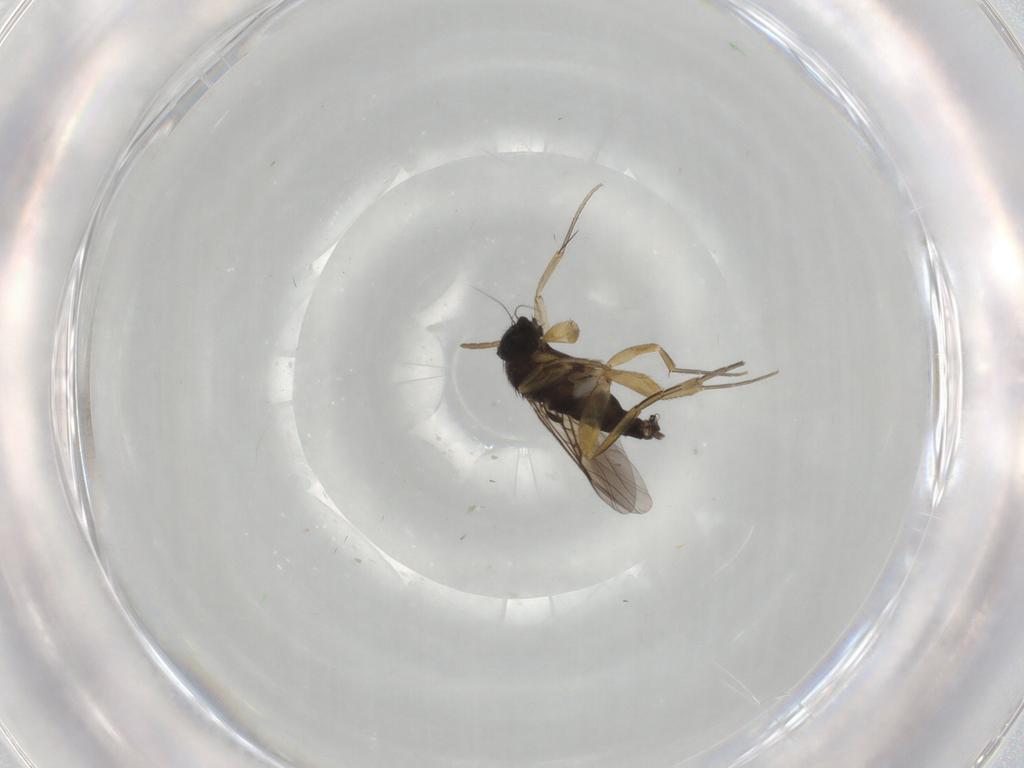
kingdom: Animalia
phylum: Arthropoda
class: Insecta
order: Diptera
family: Phoridae
